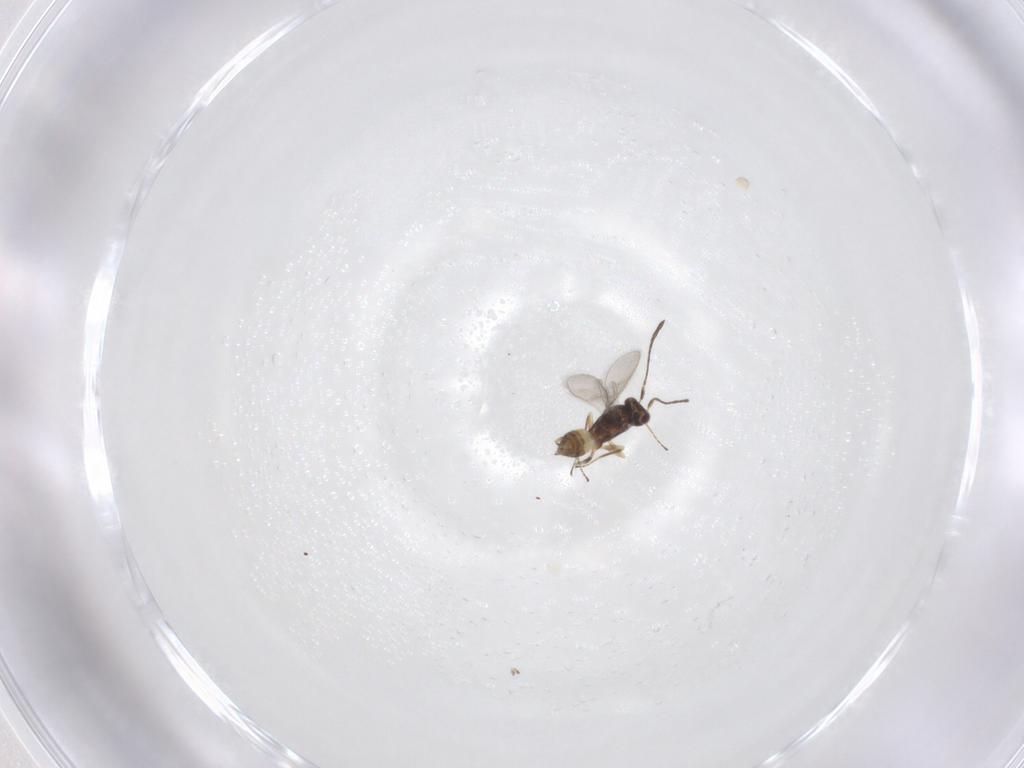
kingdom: Animalia
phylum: Arthropoda
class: Insecta
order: Hymenoptera
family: Mymaridae
